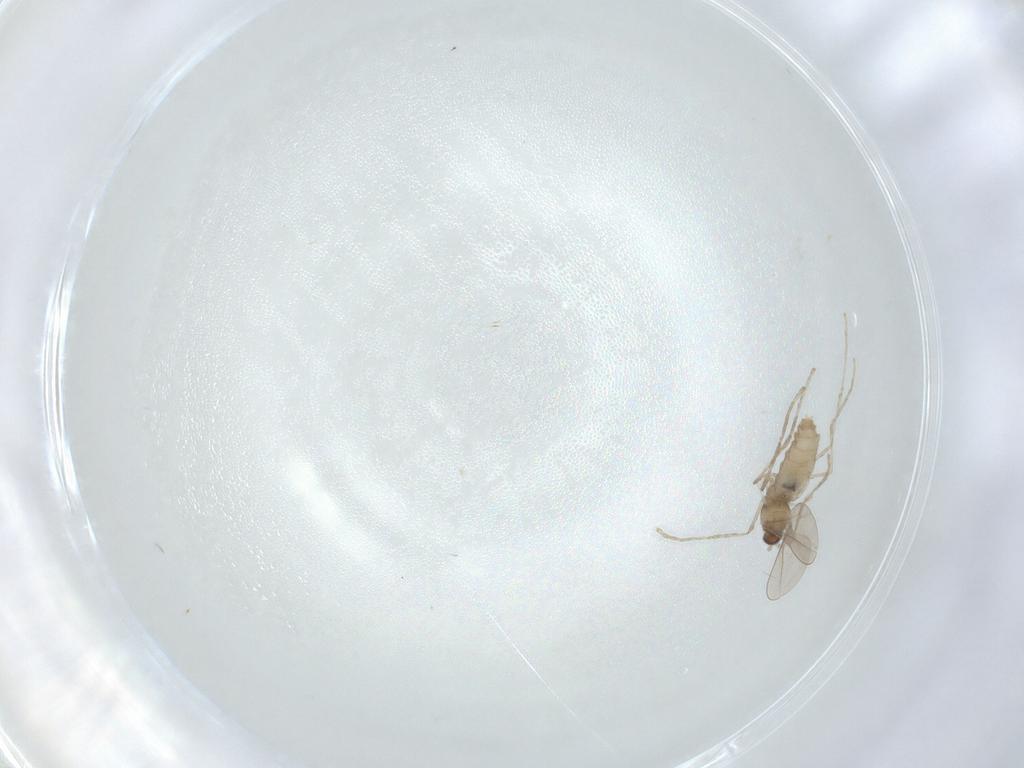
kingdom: Animalia
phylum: Arthropoda
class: Insecta
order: Diptera
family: Cecidomyiidae
